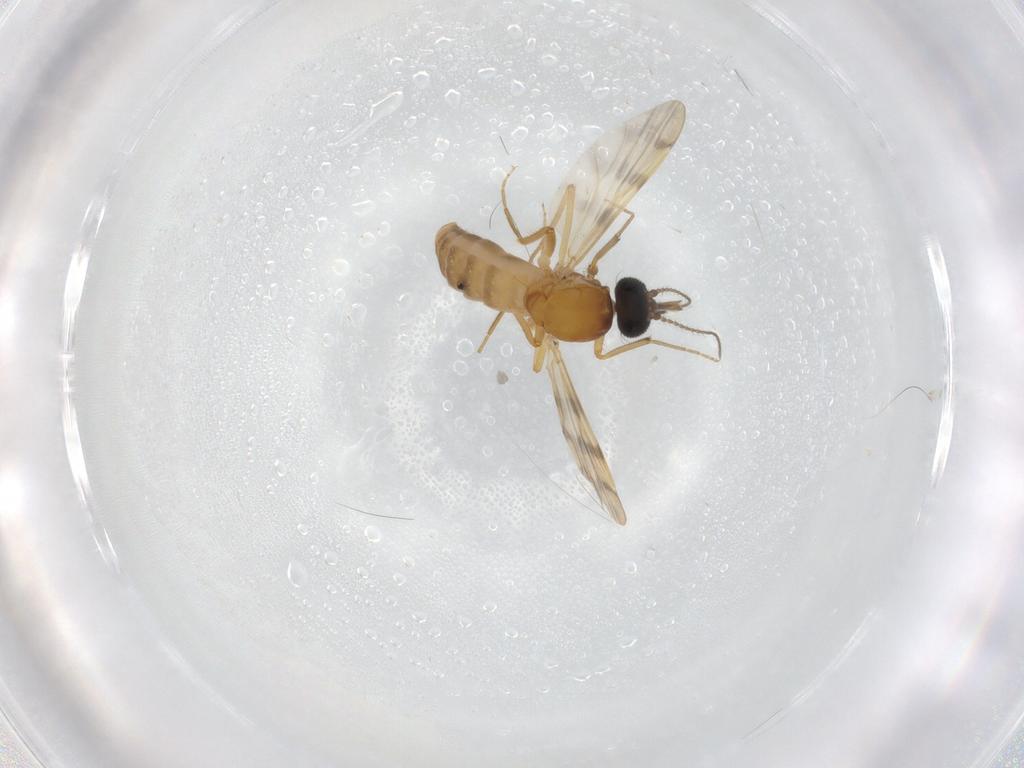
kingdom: Animalia
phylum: Arthropoda
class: Insecta
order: Diptera
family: Ceratopogonidae
